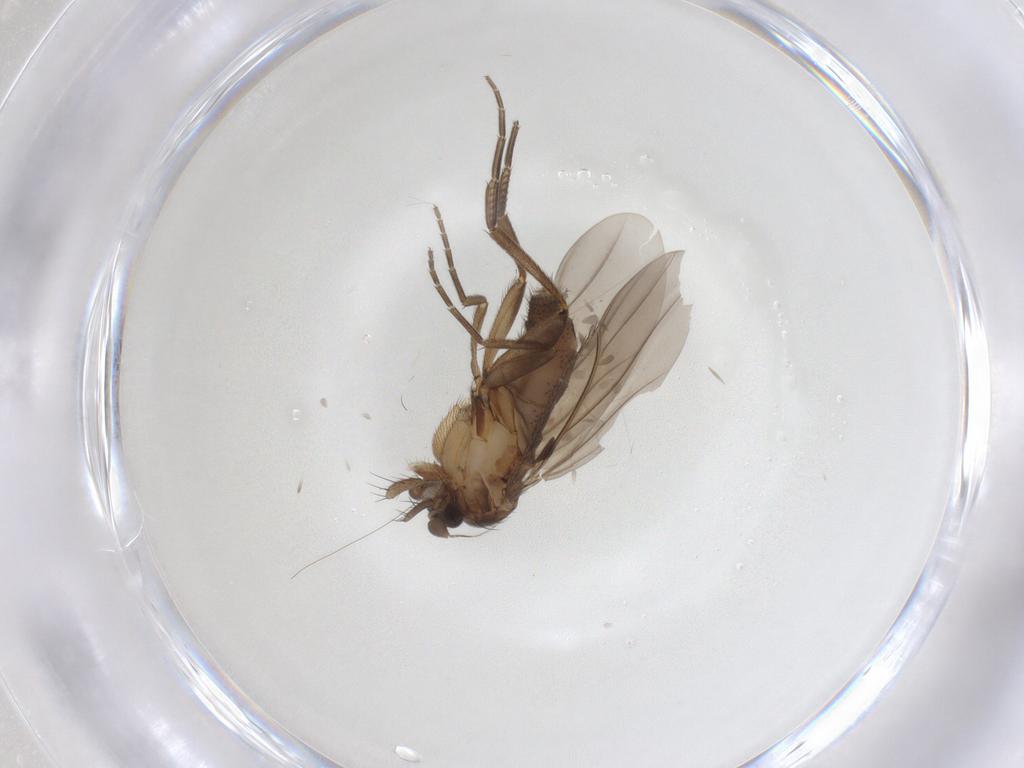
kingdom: Animalia
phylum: Arthropoda
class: Insecta
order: Diptera
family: Phoridae
